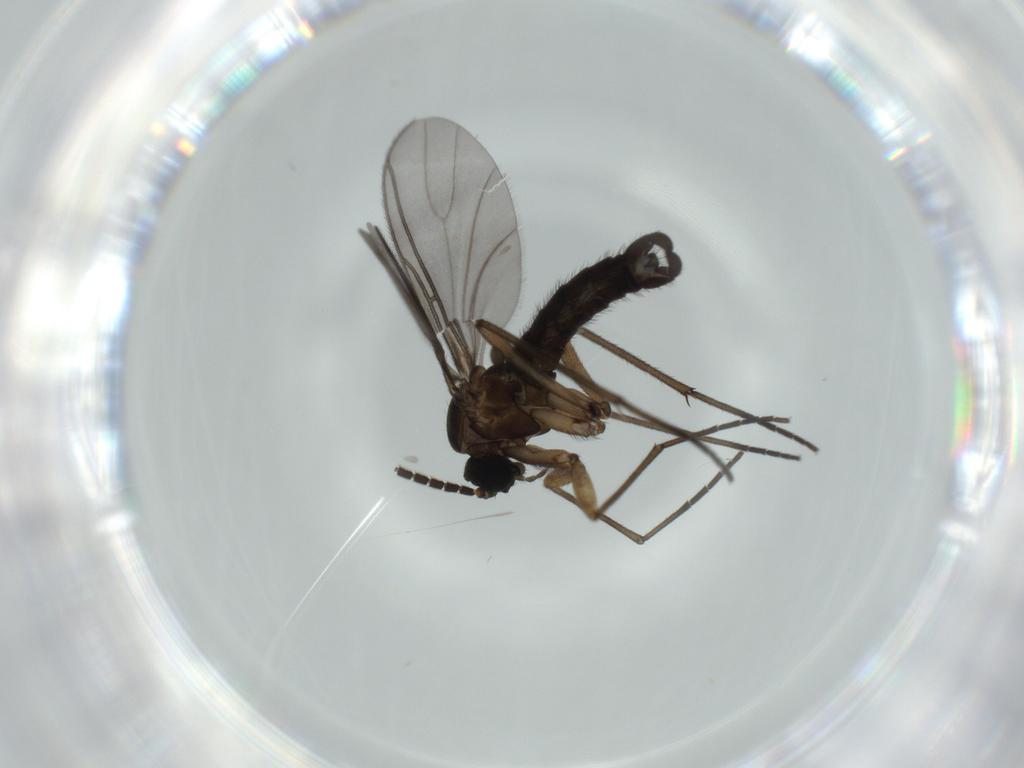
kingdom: Animalia
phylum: Arthropoda
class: Insecta
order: Diptera
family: Sciaridae
